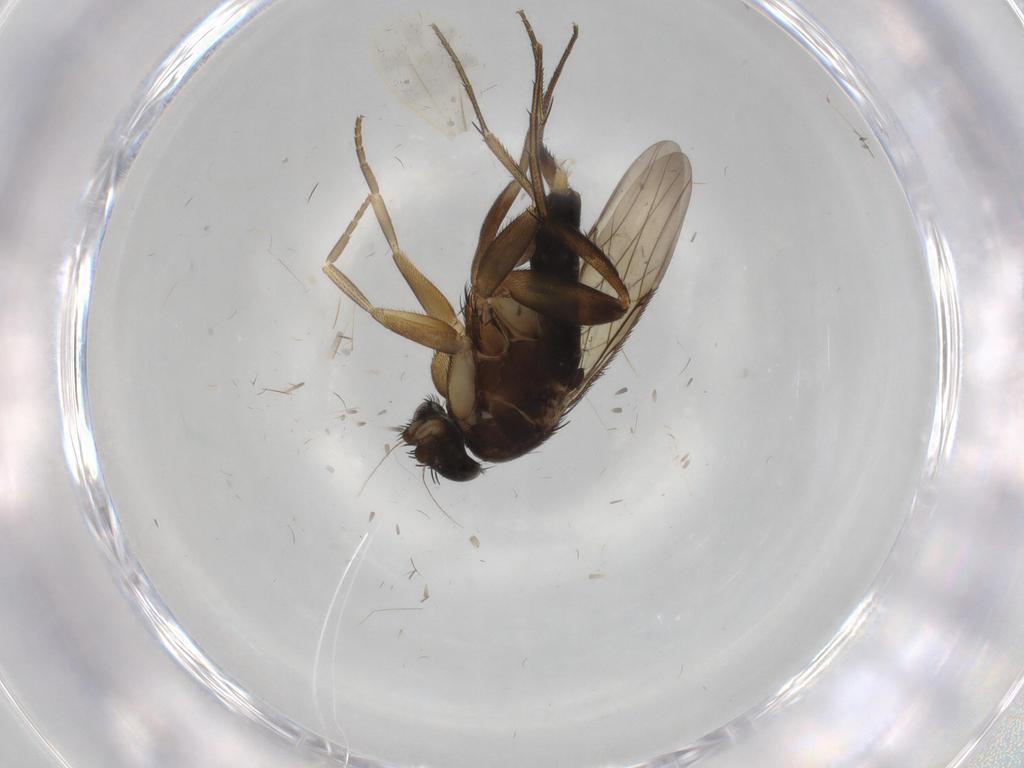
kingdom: Animalia
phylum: Arthropoda
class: Insecta
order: Diptera
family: Phoridae
